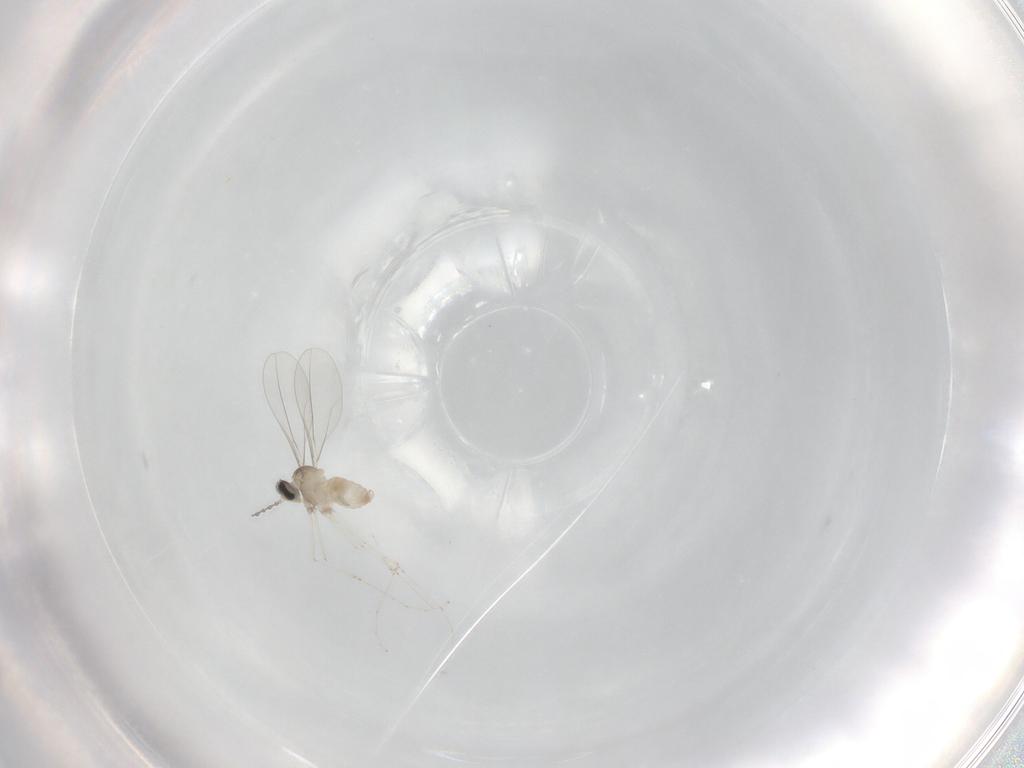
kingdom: Animalia
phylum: Arthropoda
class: Insecta
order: Diptera
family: Cecidomyiidae
